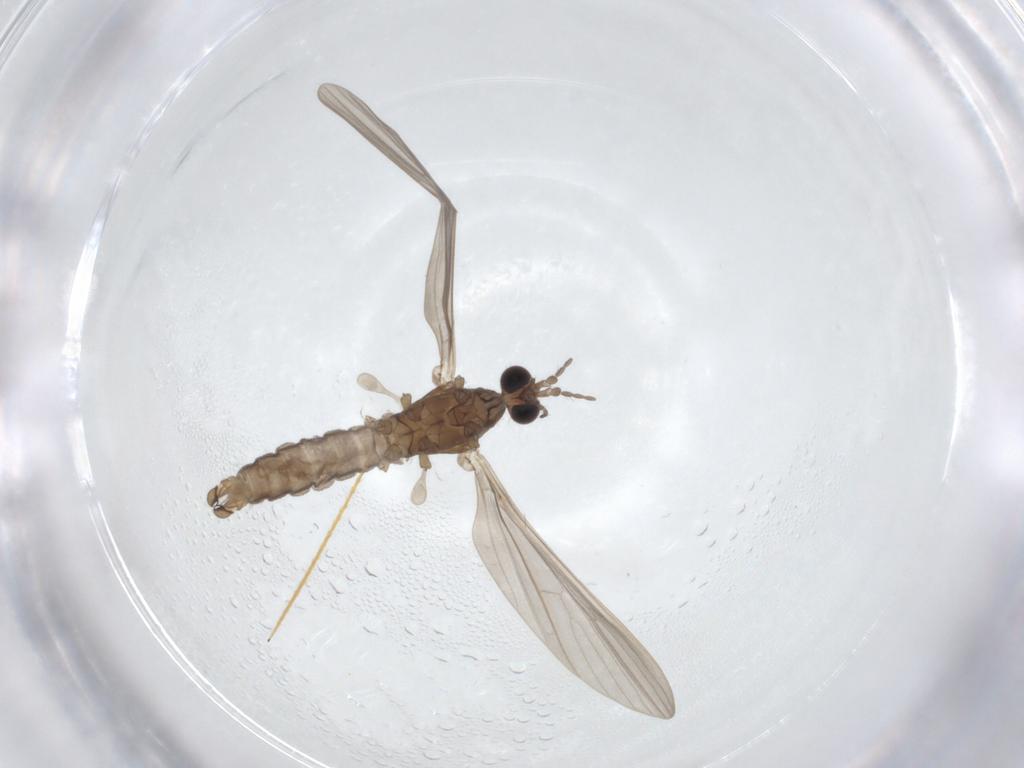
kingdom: Animalia
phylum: Arthropoda
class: Insecta
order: Diptera
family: Limoniidae
